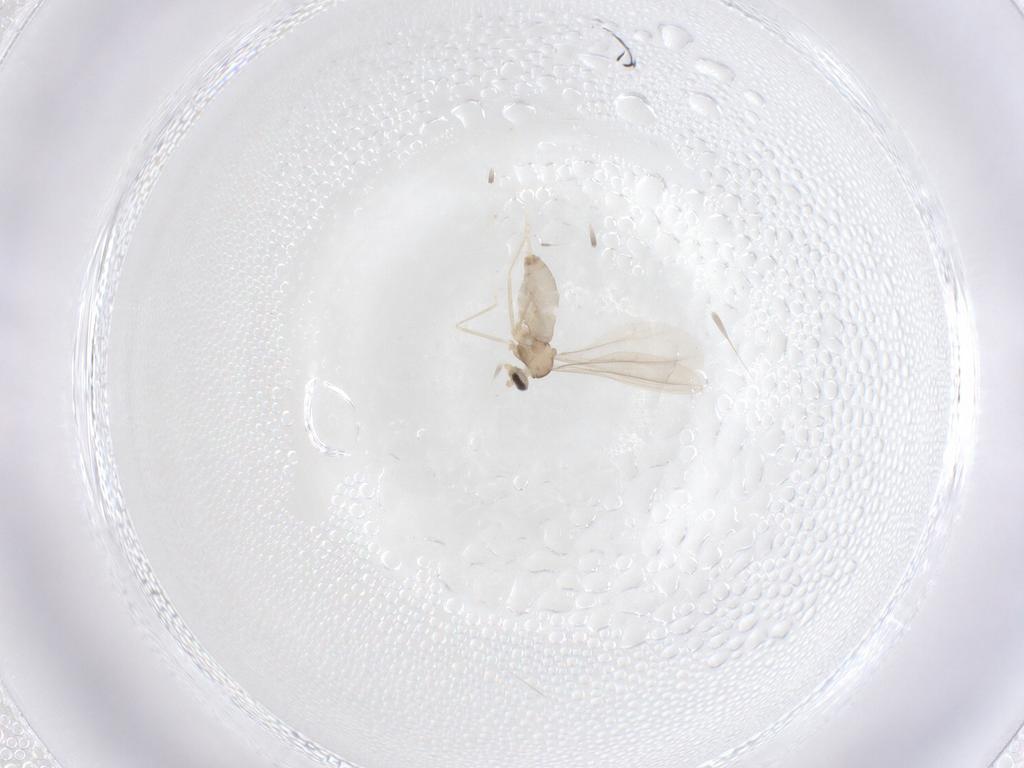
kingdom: Animalia
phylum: Arthropoda
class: Insecta
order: Diptera
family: Cecidomyiidae
